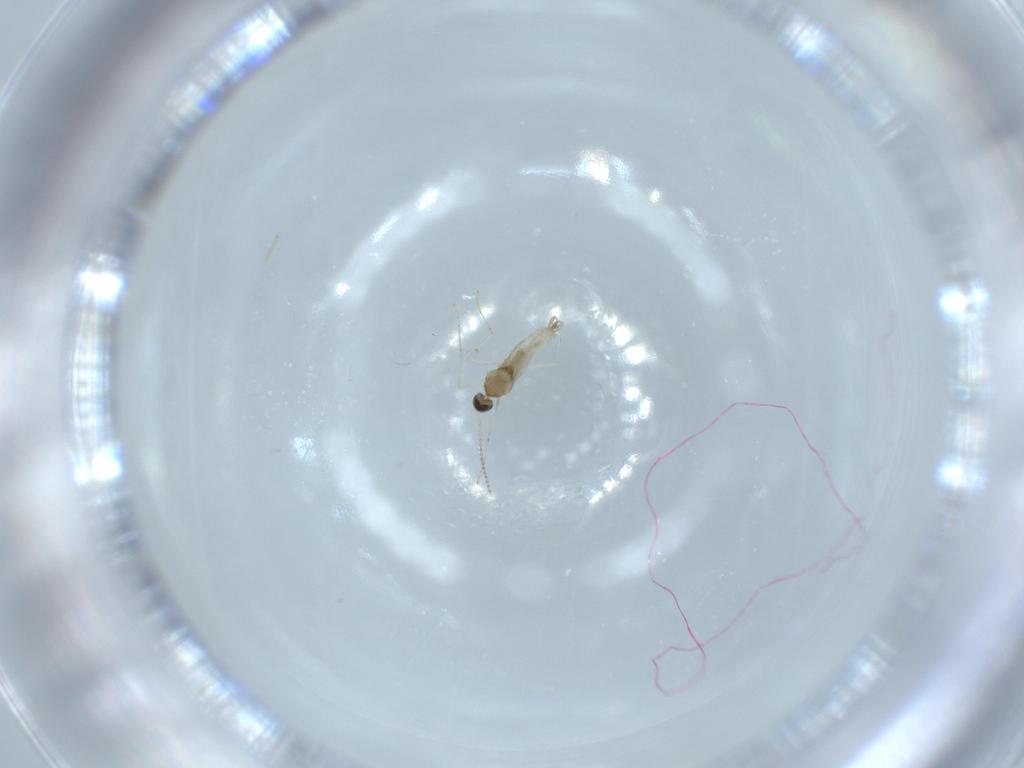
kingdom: Animalia
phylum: Arthropoda
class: Insecta
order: Diptera
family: Cecidomyiidae
